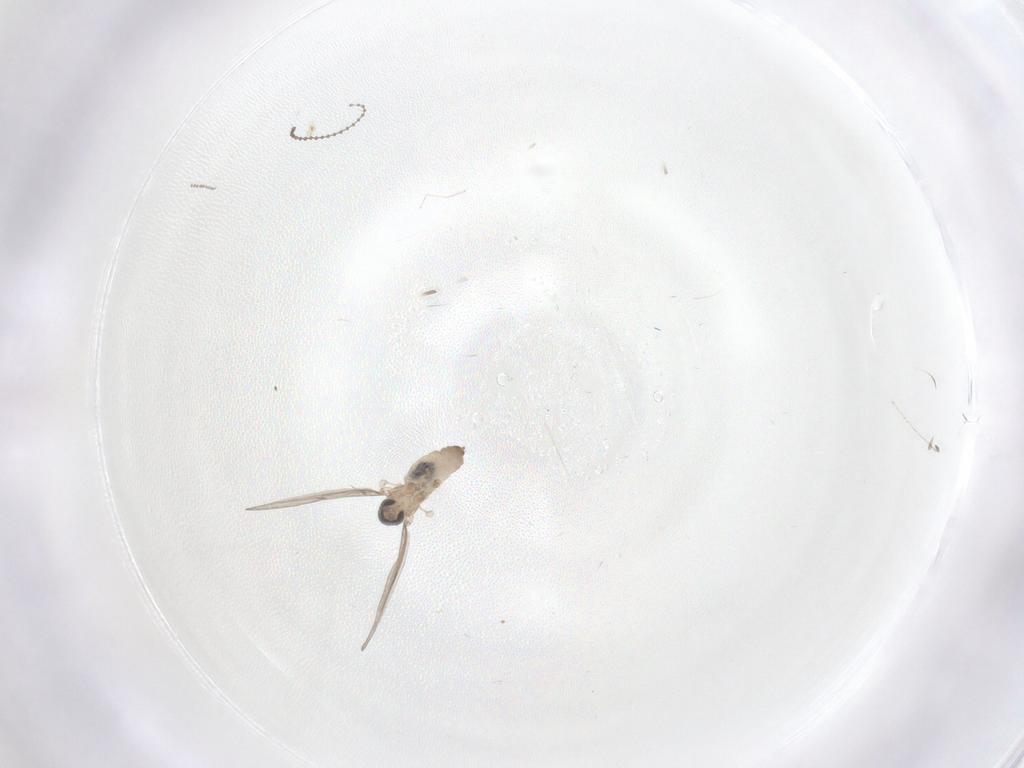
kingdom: Animalia
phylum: Arthropoda
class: Insecta
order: Diptera
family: Cecidomyiidae
